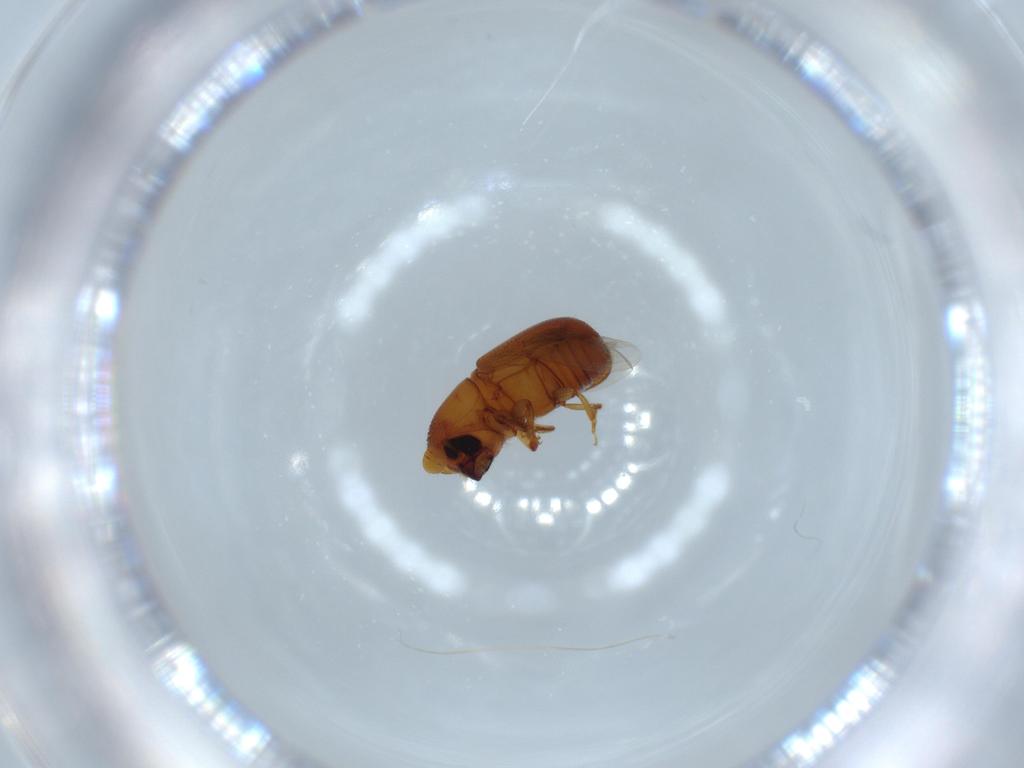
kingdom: Animalia
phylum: Arthropoda
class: Insecta
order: Coleoptera
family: Curculionidae
